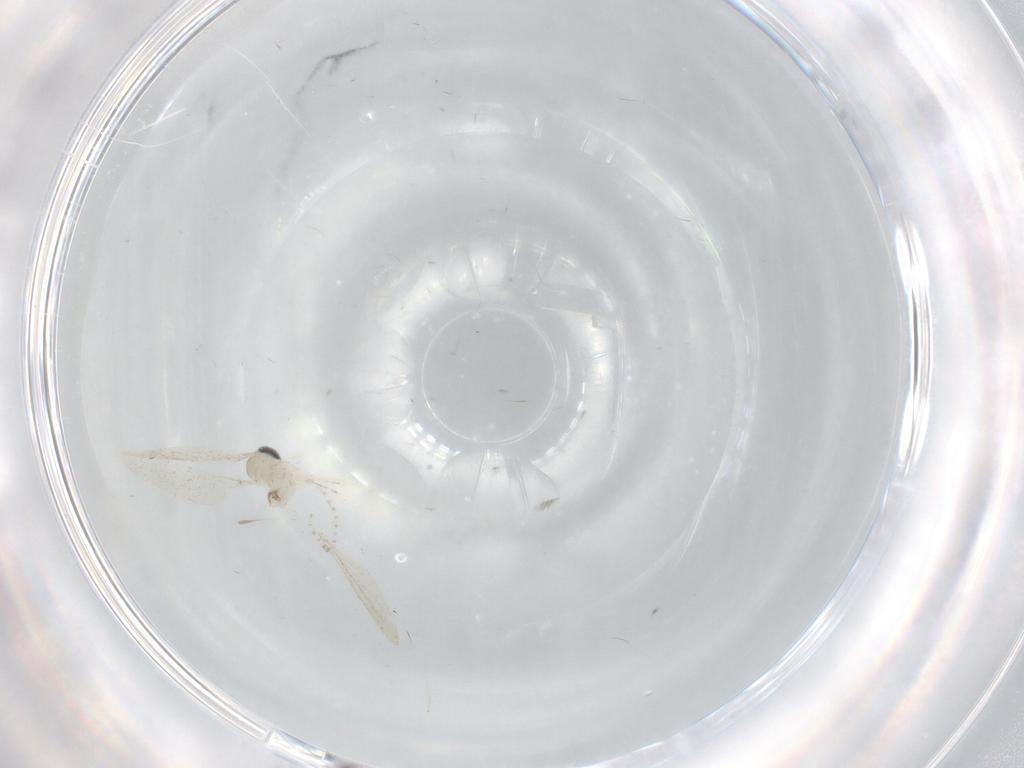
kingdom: Animalia
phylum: Arthropoda
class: Insecta
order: Diptera
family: Cecidomyiidae
